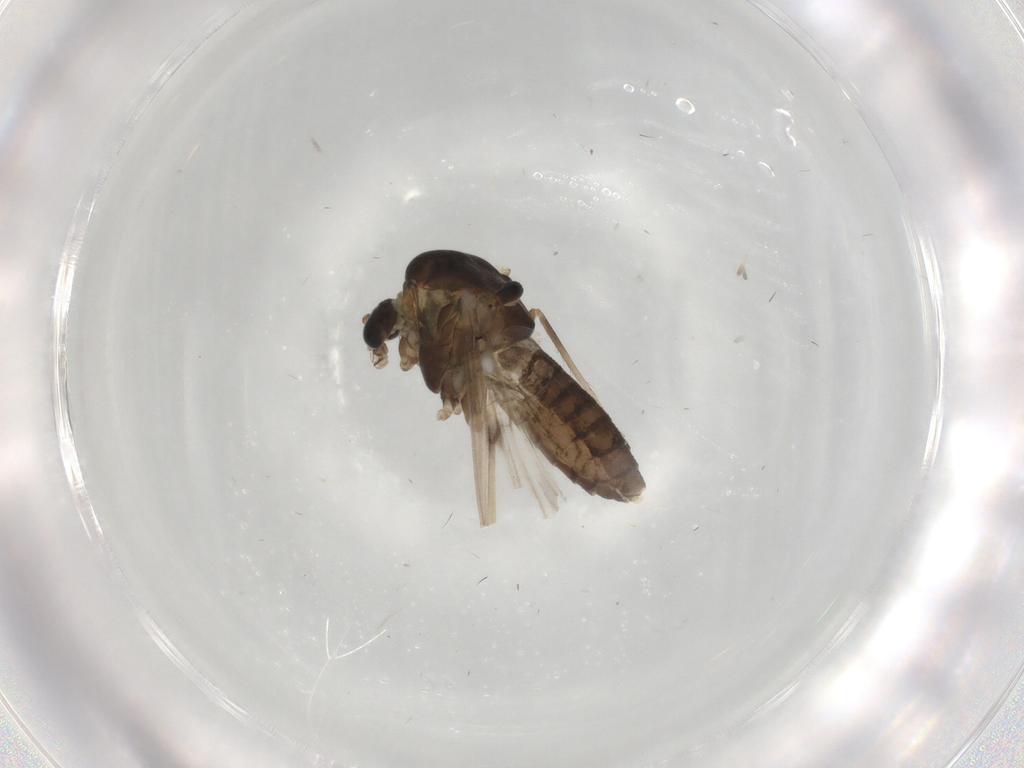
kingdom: Animalia
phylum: Arthropoda
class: Insecta
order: Diptera
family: Chironomidae
